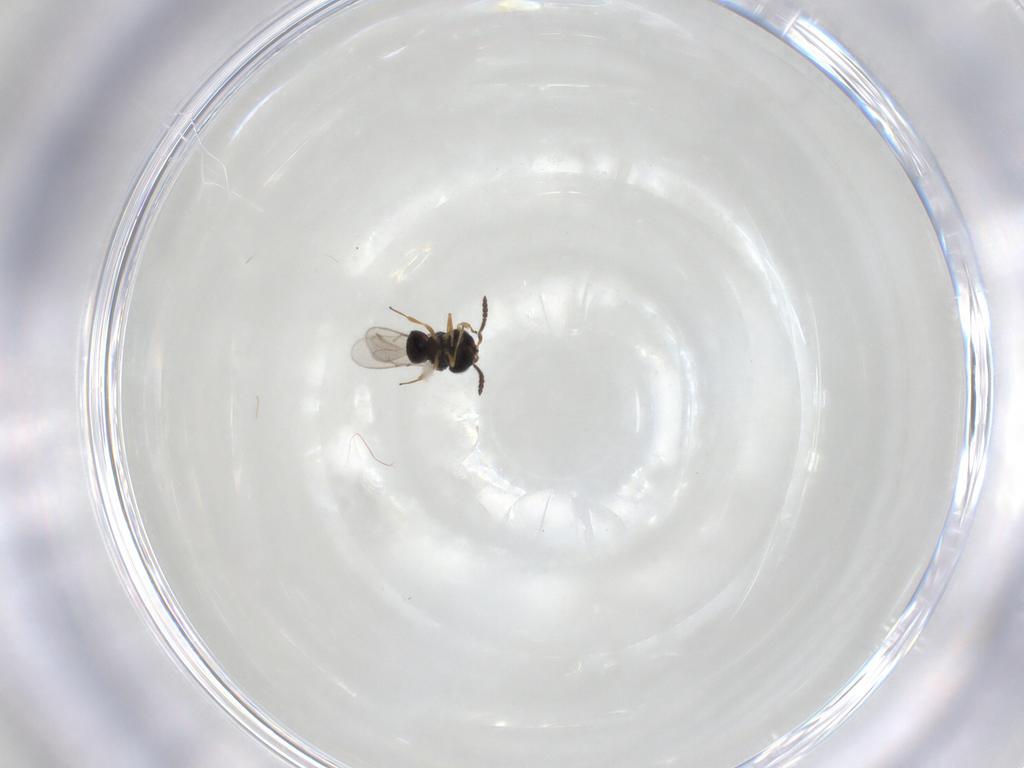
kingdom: Animalia
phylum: Arthropoda
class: Insecta
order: Hymenoptera
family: Scelionidae
